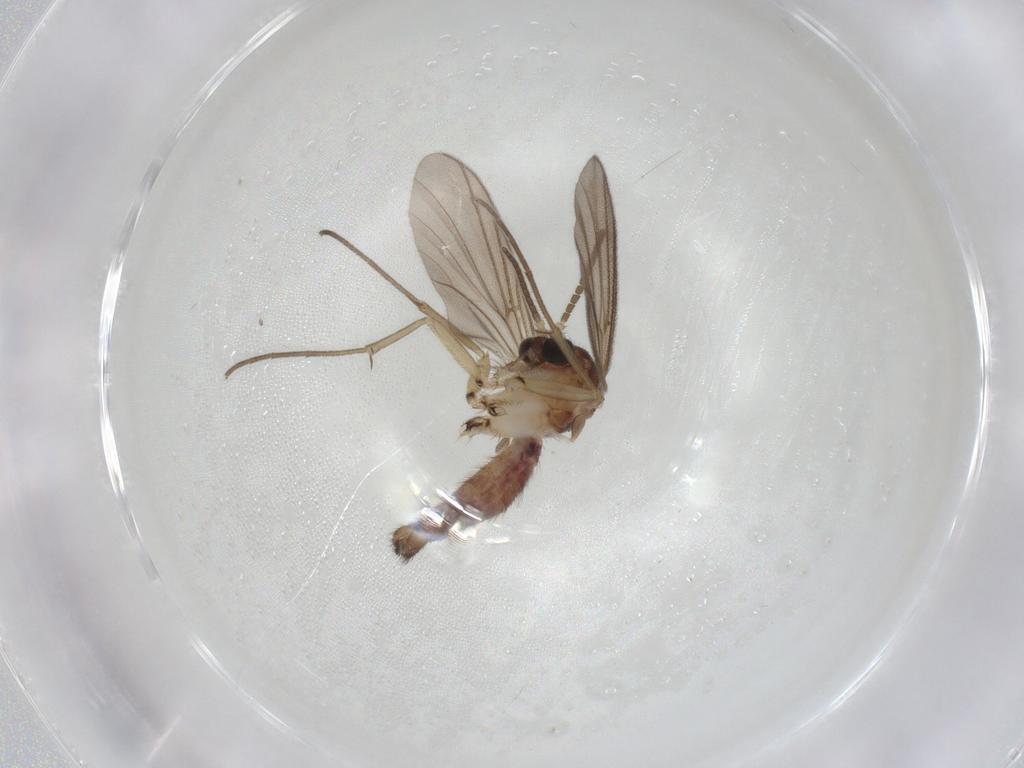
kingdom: Animalia
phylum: Arthropoda
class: Insecta
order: Diptera
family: Mycetophilidae
